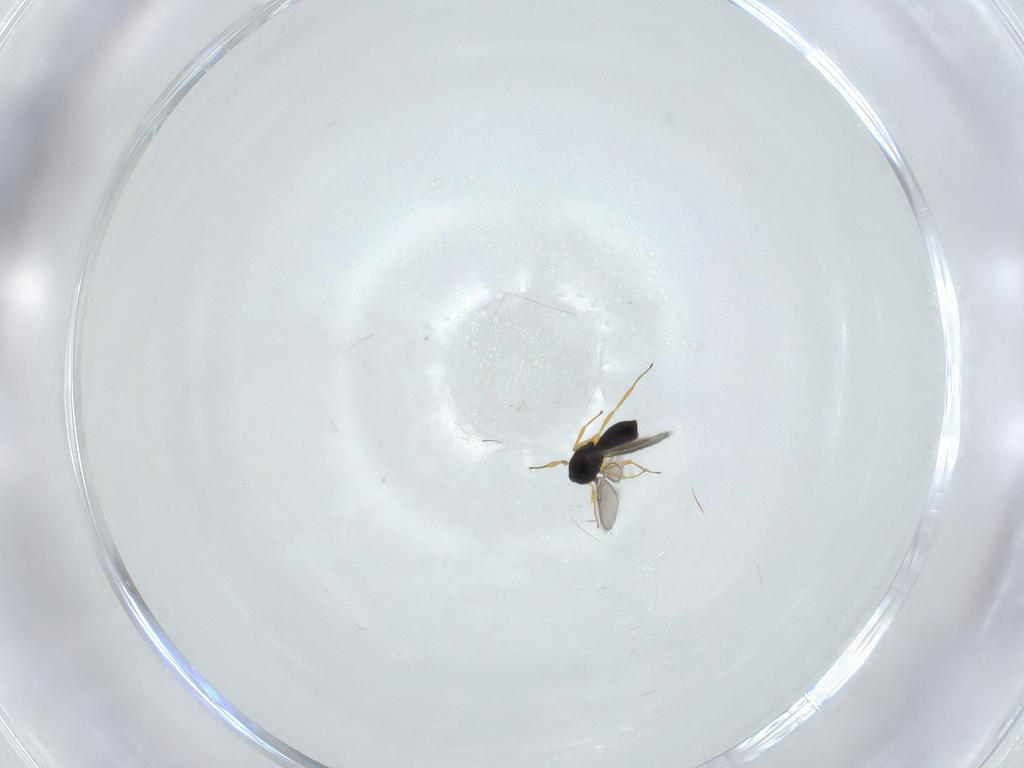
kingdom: Animalia
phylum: Arthropoda
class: Insecta
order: Hymenoptera
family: Scelionidae
